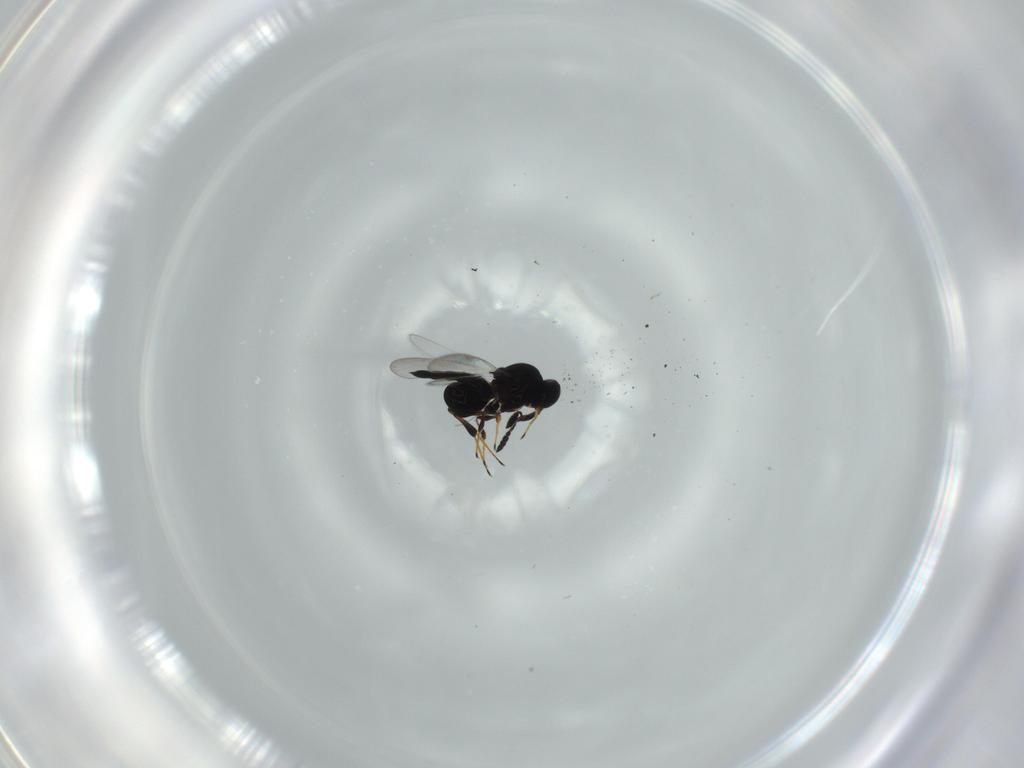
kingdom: Animalia
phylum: Arthropoda
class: Insecta
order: Hymenoptera
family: Platygastridae
